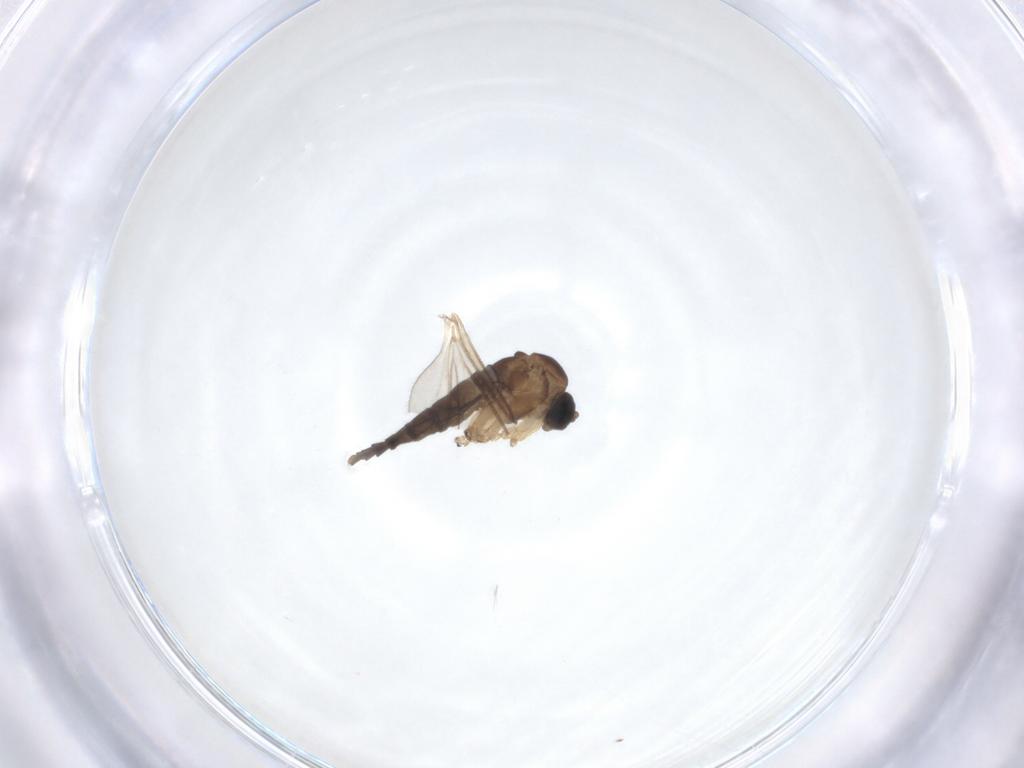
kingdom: Animalia
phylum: Arthropoda
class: Insecta
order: Diptera
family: Sciaridae
